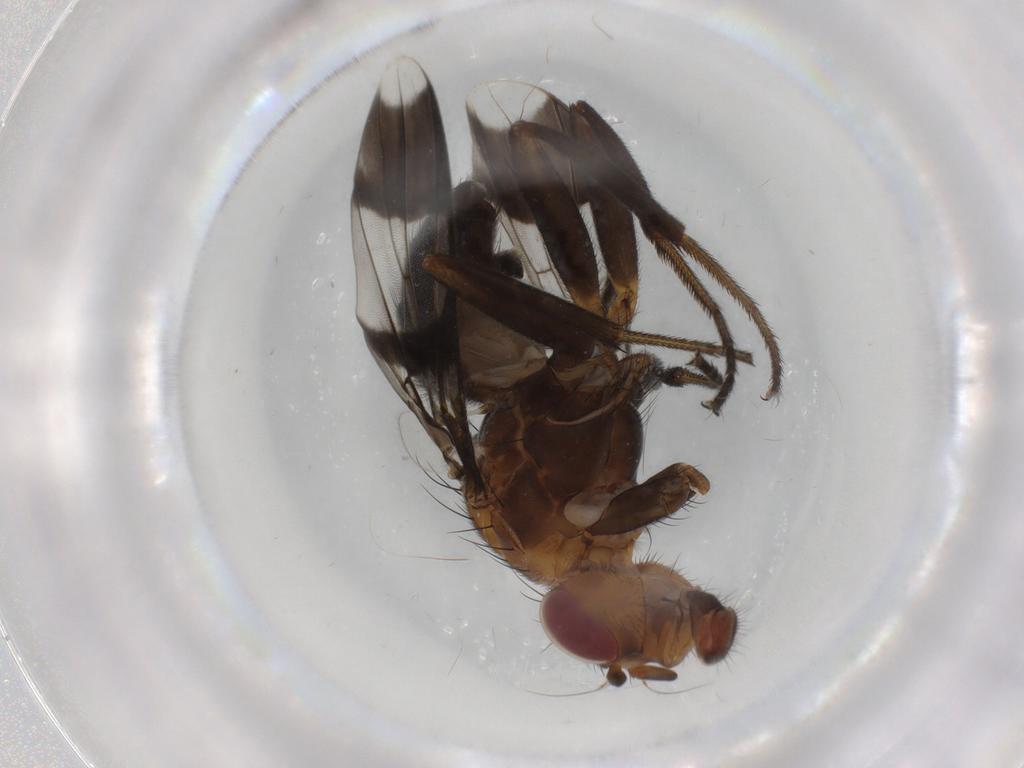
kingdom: Animalia
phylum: Arthropoda
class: Insecta
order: Diptera
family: Richardiidae
